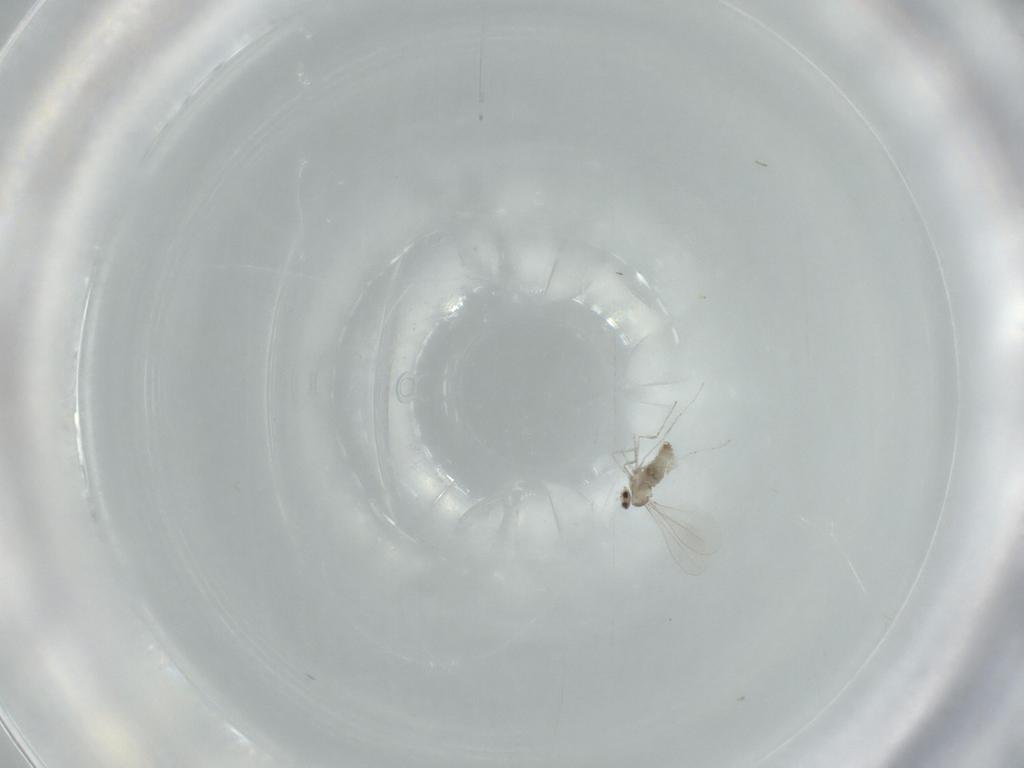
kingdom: Animalia
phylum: Arthropoda
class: Insecta
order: Diptera
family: Cecidomyiidae
